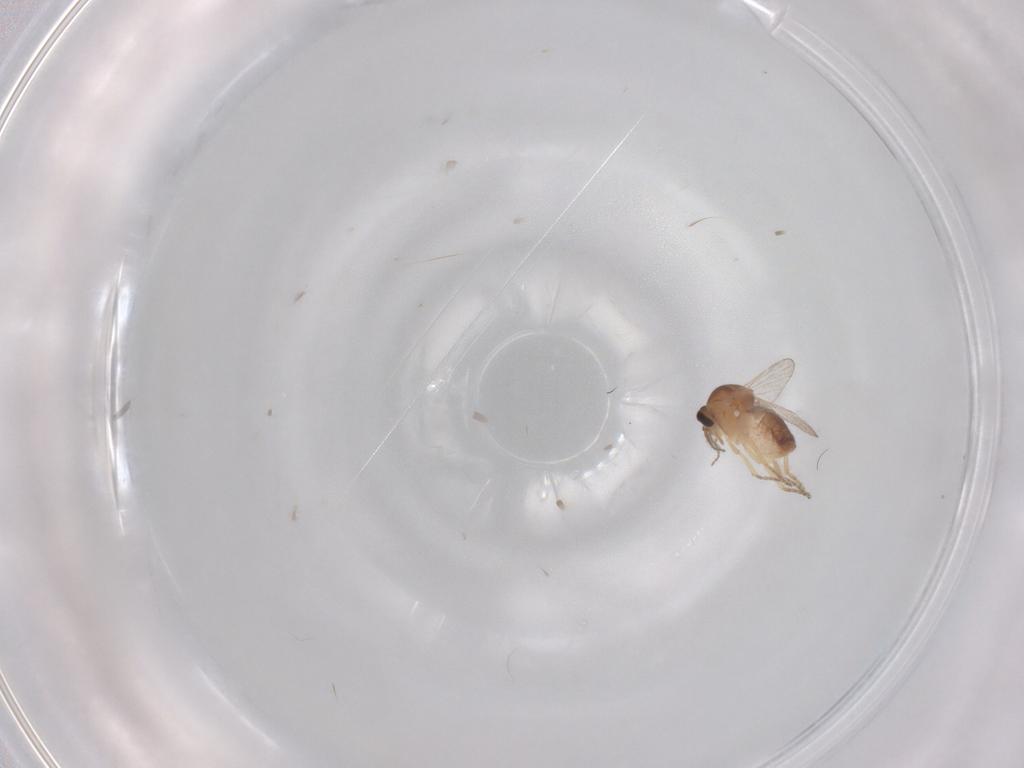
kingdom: Animalia
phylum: Arthropoda
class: Insecta
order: Diptera
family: Ceratopogonidae
